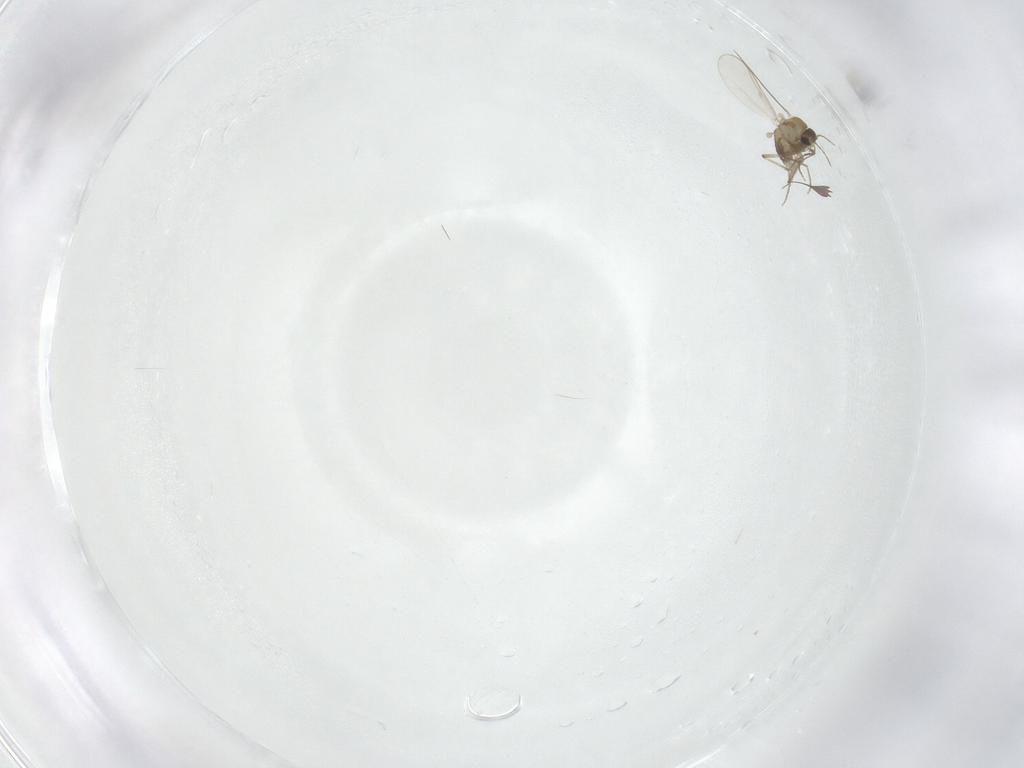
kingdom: Animalia
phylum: Arthropoda
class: Insecta
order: Diptera
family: Chironomidae
